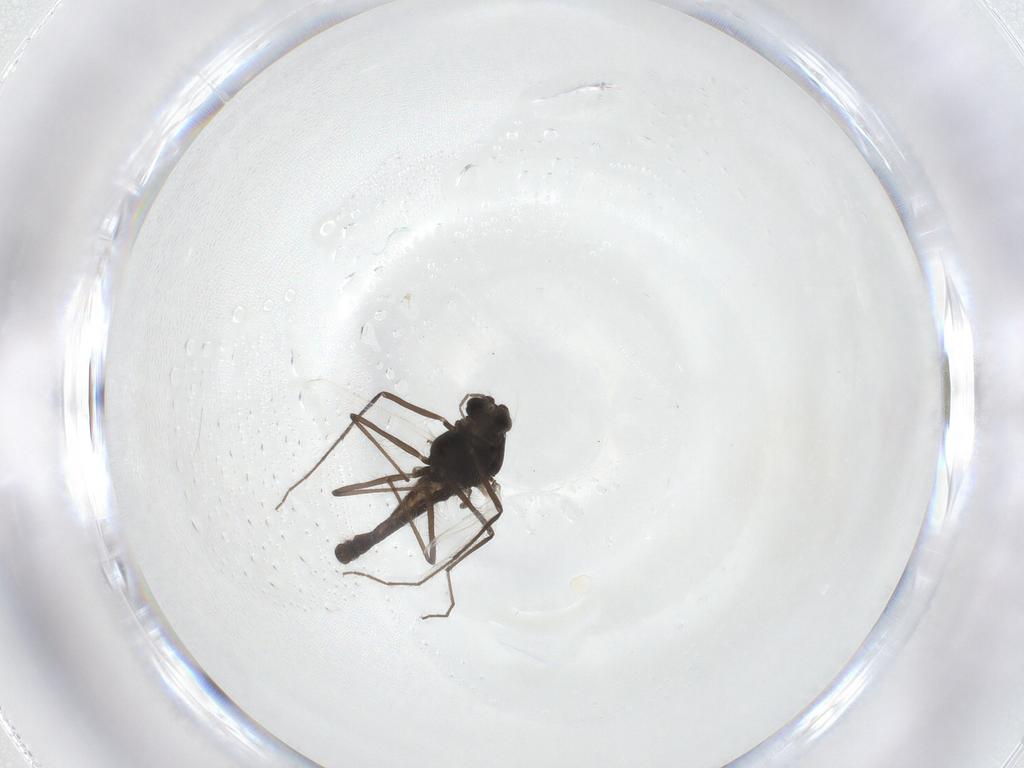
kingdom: Animalia
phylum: Arthropoda
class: Insecta
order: Diptera
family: Chironomidae
